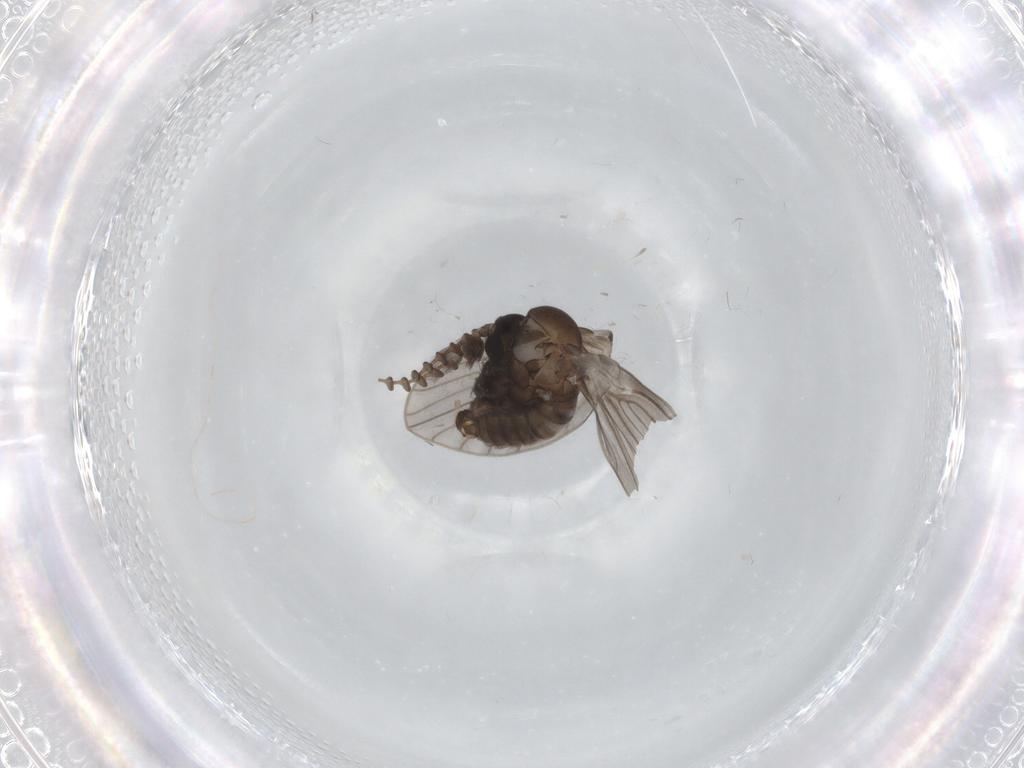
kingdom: Animalia
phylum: Arthropoda
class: Insecta
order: Diptera
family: Psychodidae
